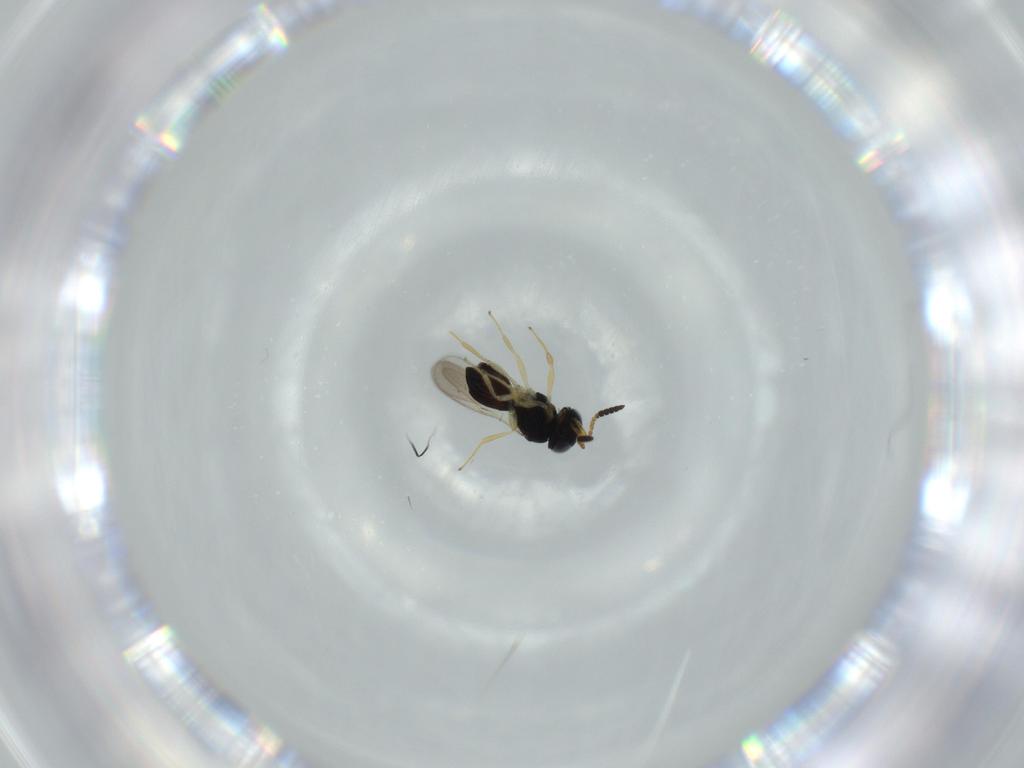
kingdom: Animalia
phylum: Arthropoda
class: Insecta
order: Hymenoptera
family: Scelionidae
